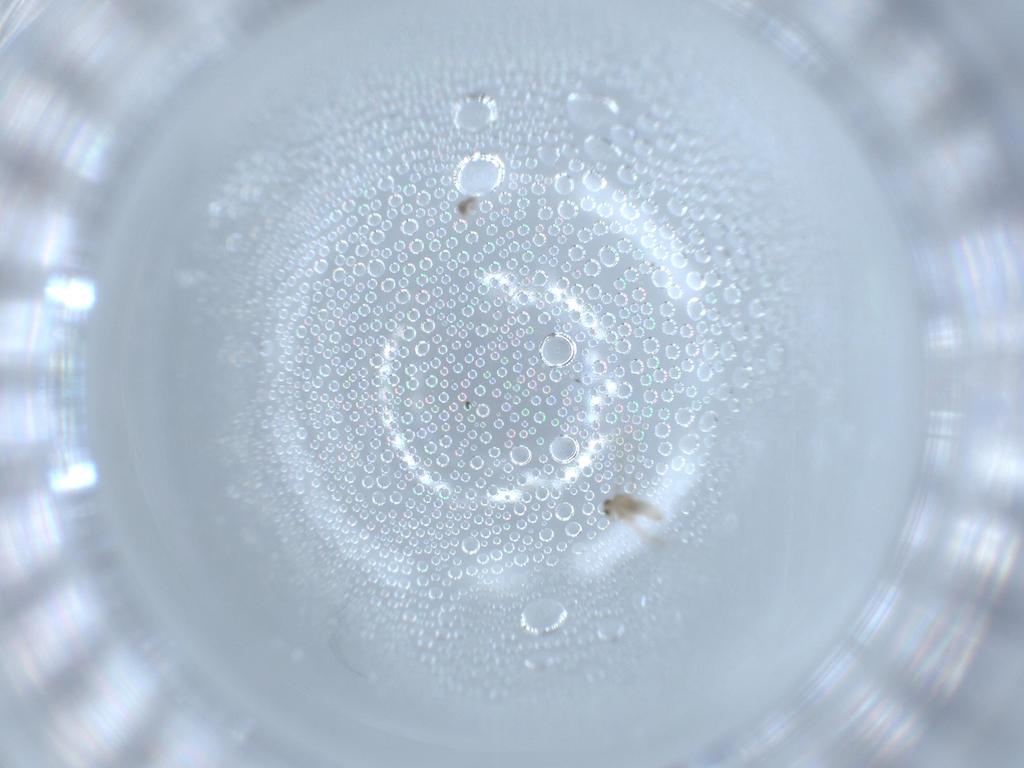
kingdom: Animalia
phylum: Arthropoda
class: Insecta
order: Diptera
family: Cecidomyiidae
